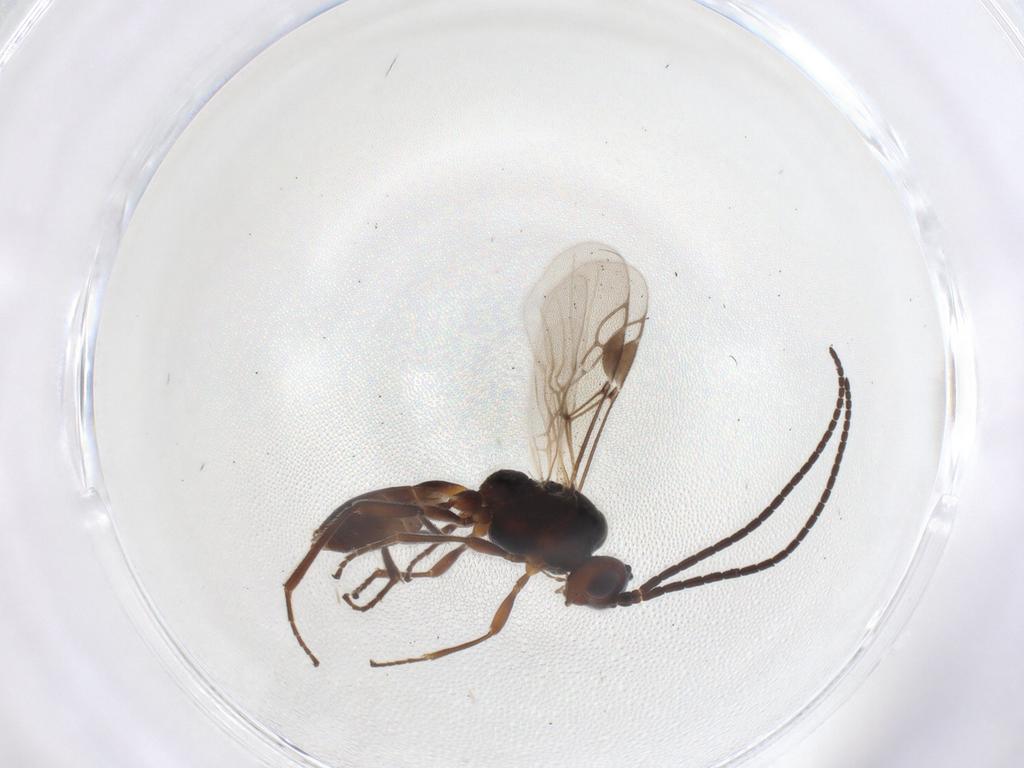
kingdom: Animalia
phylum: Arthropoda
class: Insecta
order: Hymenoptera
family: Braconidae
